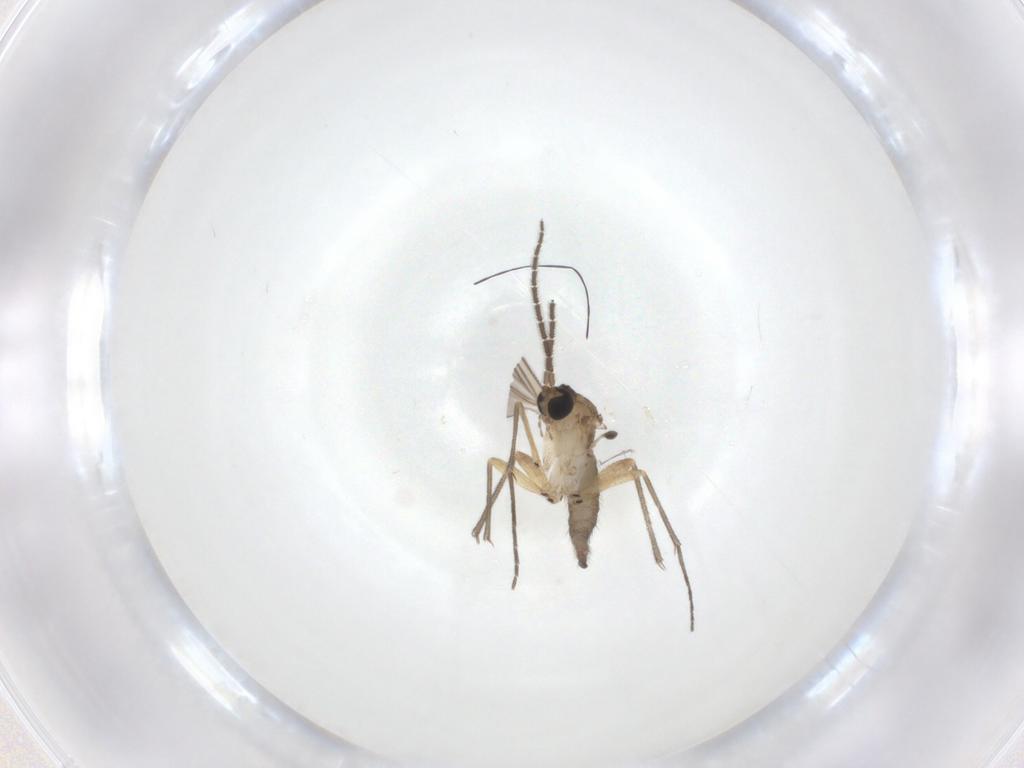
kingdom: Animalia
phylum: Arthropoda
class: Insecta
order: Diptera
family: Sciaridae
